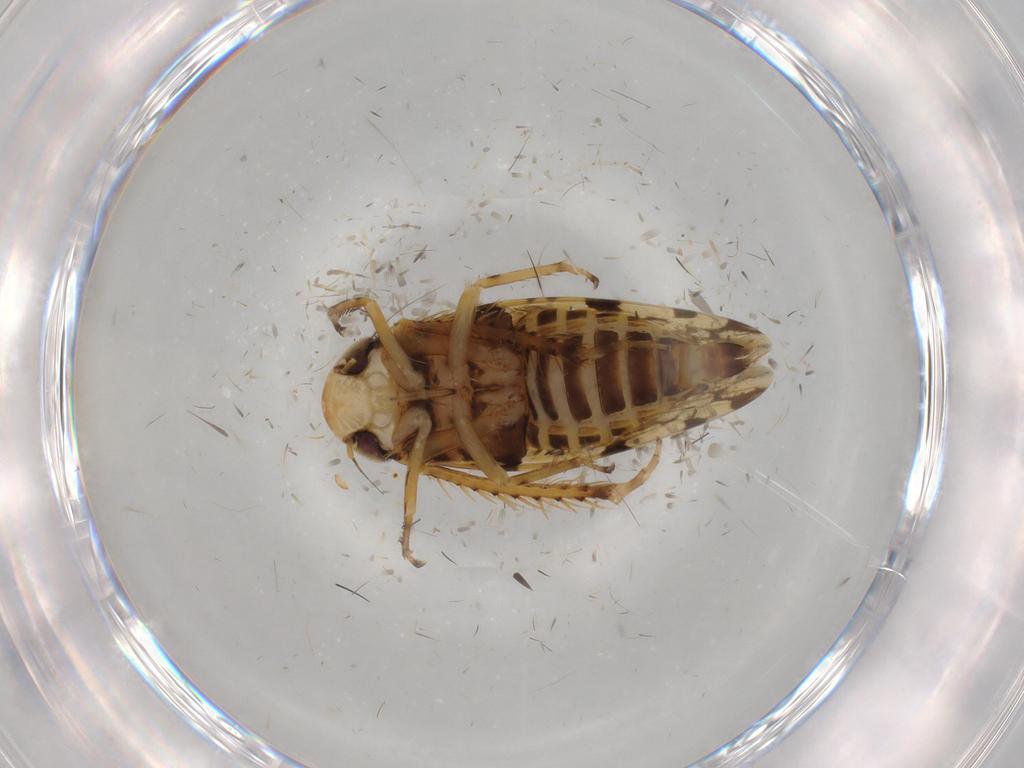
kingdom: Animalia
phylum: Arthropoda
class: Insecta
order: Hemiptera
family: Cicadellidae
